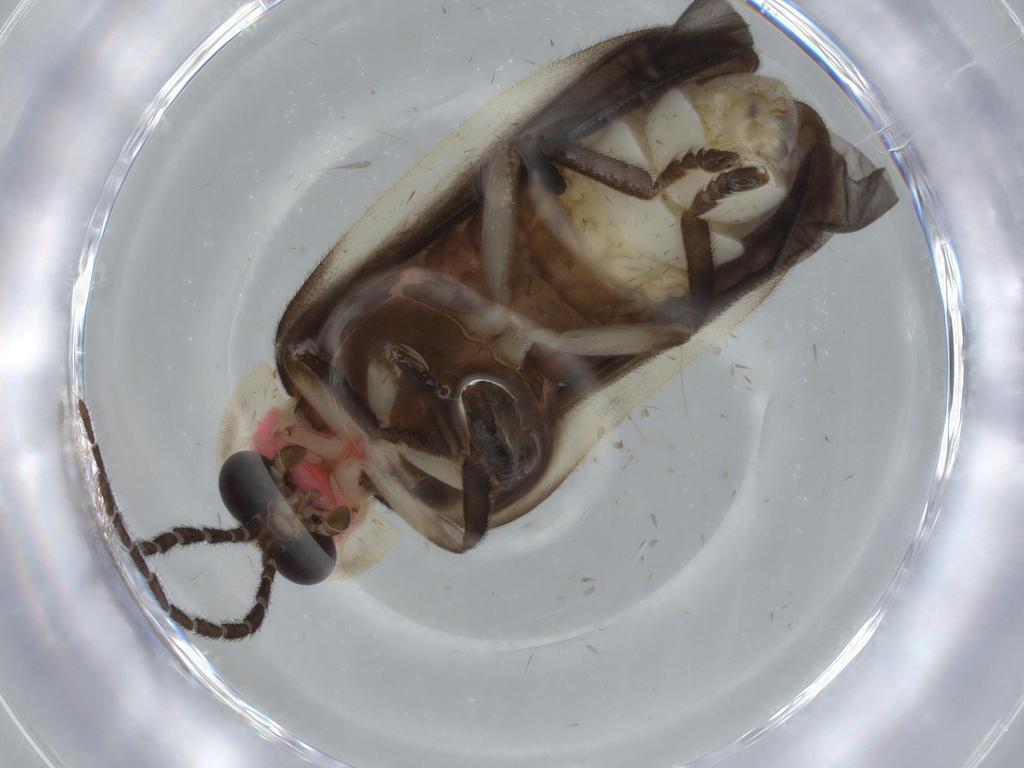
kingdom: Animalia
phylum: Arthropoda
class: Insecta
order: Coleoptera
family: Lampyridae
